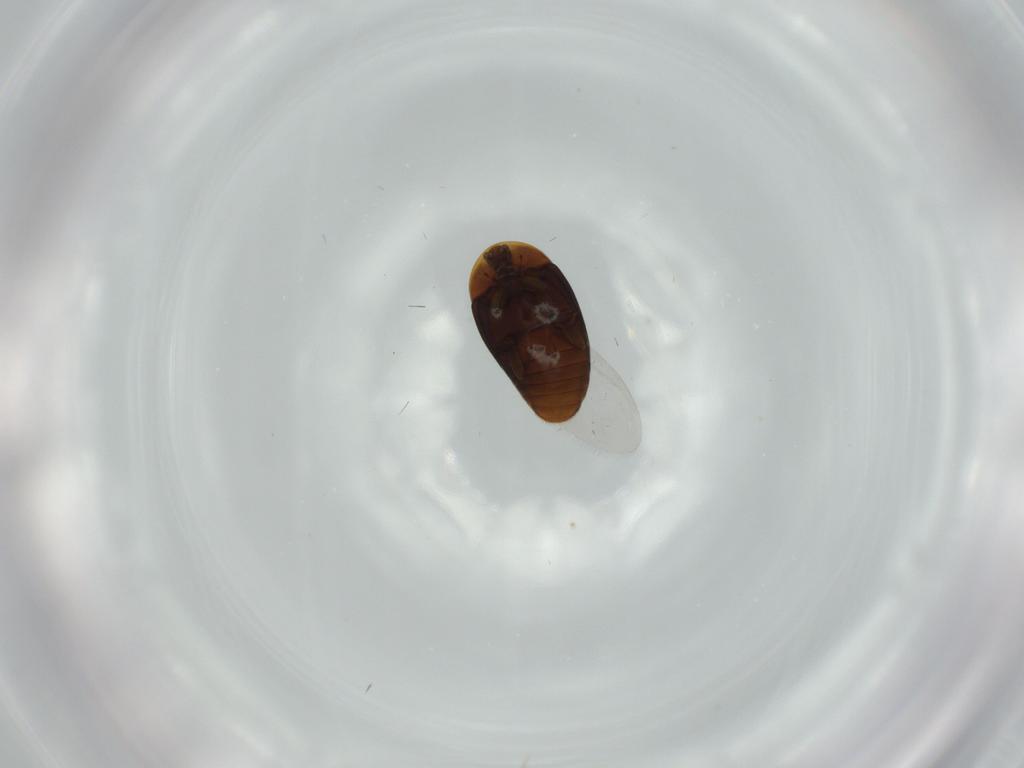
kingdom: Animalia
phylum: Arthropoda
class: Insecta
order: Coleoptera
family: Corylophidae
